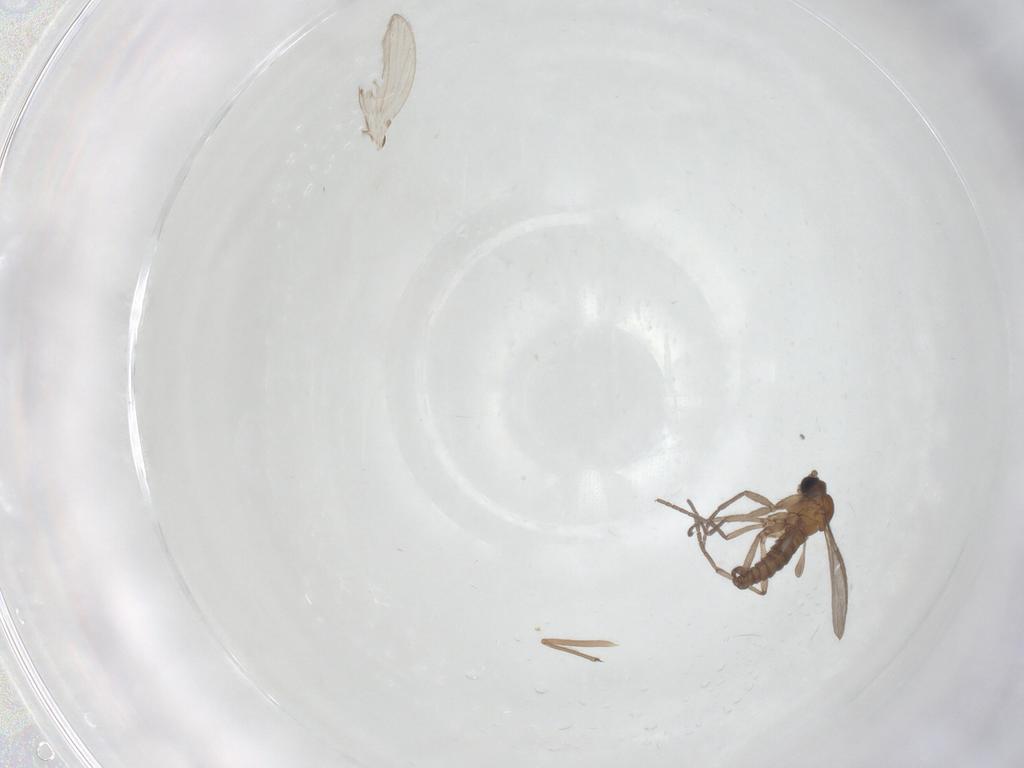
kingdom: Animalia
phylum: Arthropoda
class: Insecta
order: Diptera
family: Sciaridae
